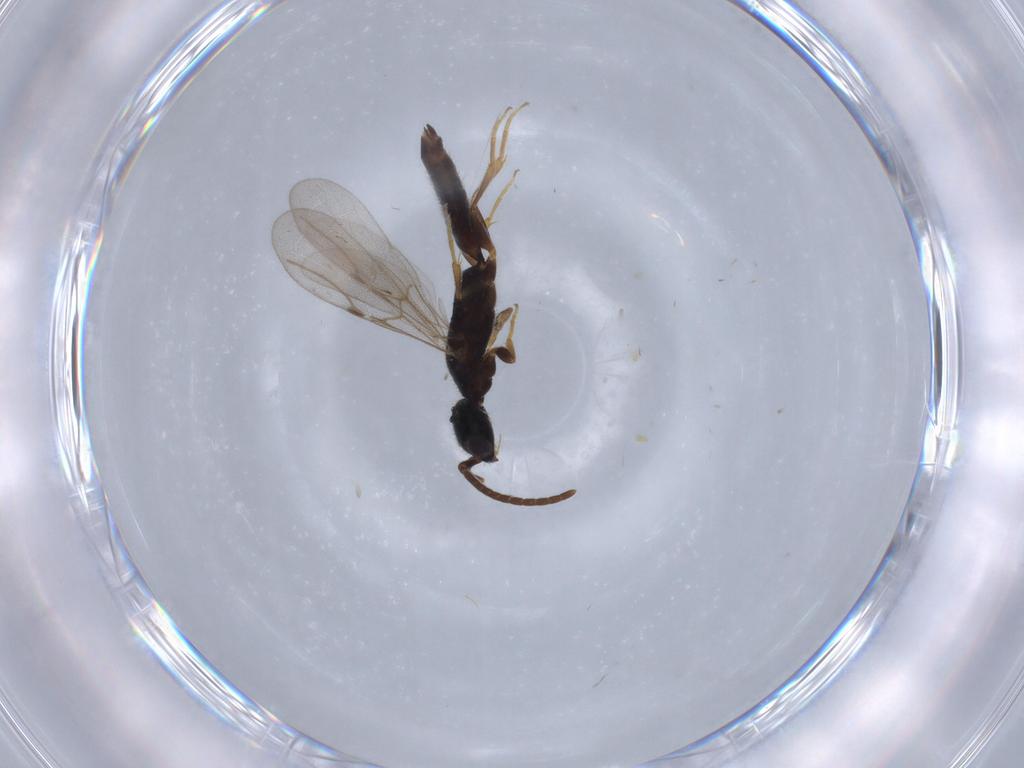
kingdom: Animalia
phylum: Arthropoda
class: Insecta
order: Hymenoptera
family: Bethylidae
